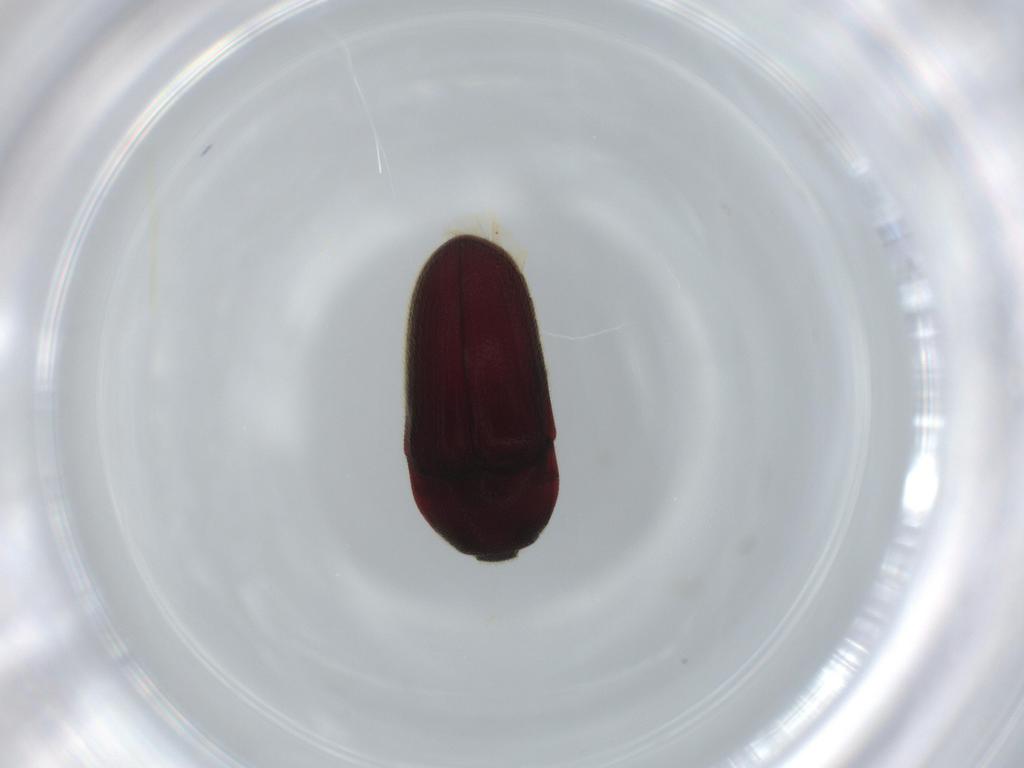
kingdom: Animalia
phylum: Arthropoda
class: Insecta
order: Coleoptera
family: Throscidae
